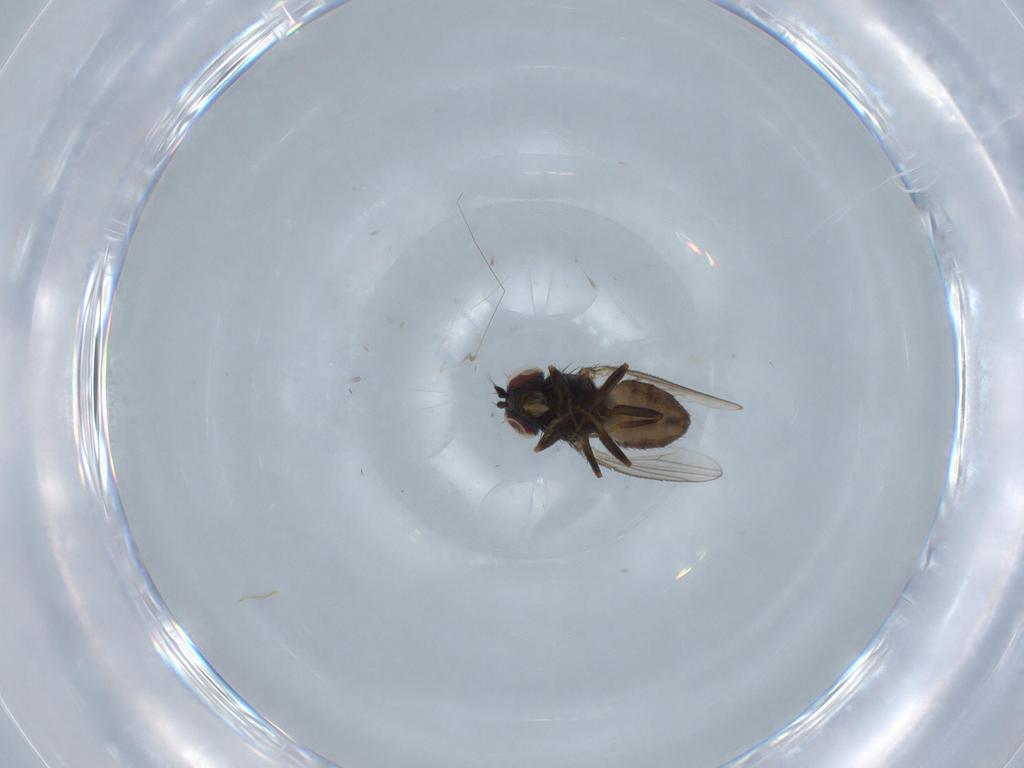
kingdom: Animalia
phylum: Arthropoda
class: Insecta
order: Diptera
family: Ephydridae
